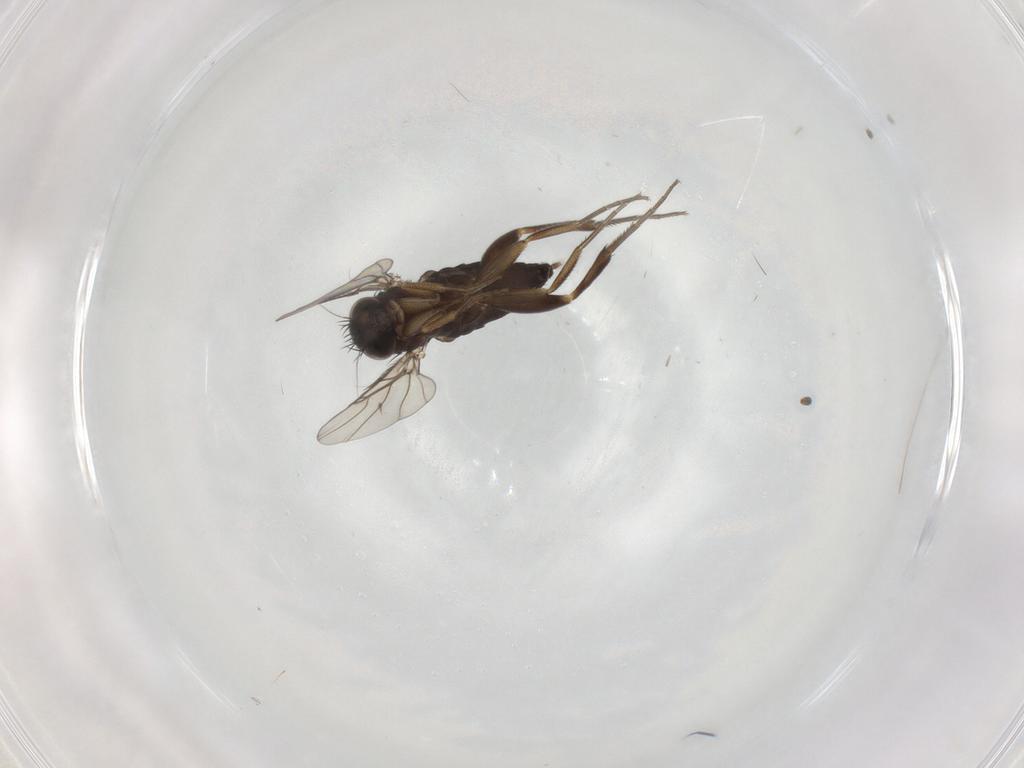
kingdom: Animalia
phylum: Arthropoda
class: Insecta
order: Diptera
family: Phoridae
